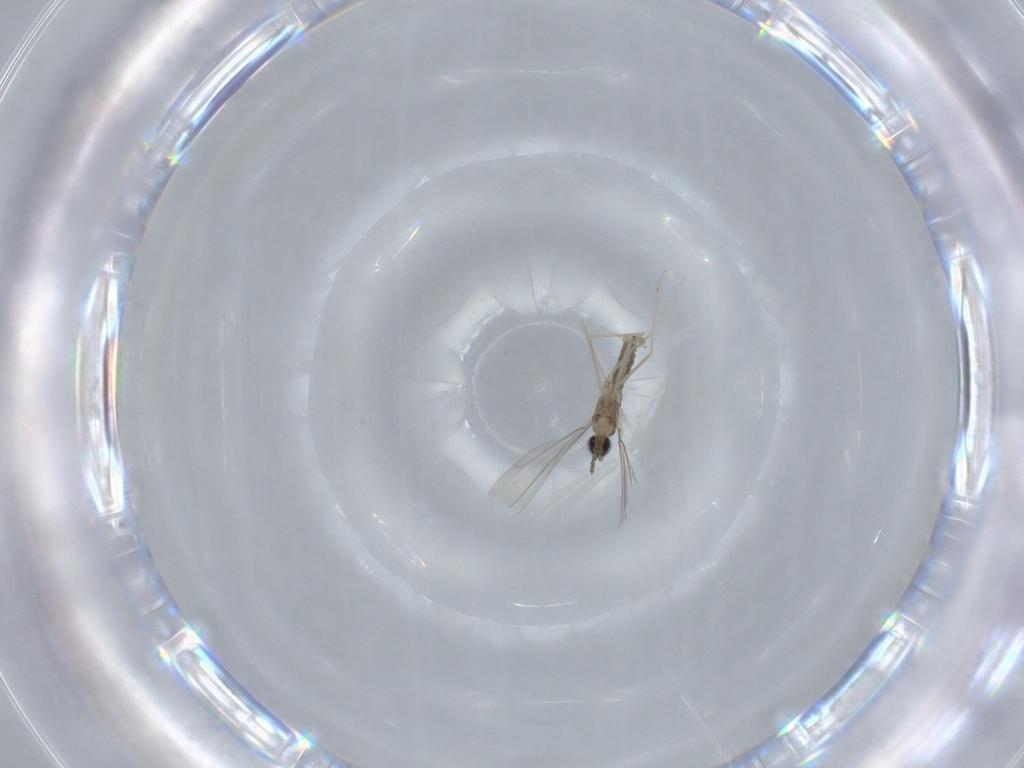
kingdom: Animalia
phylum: Arthropoda
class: Insecta
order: Diptera
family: Cecidomyiidae
